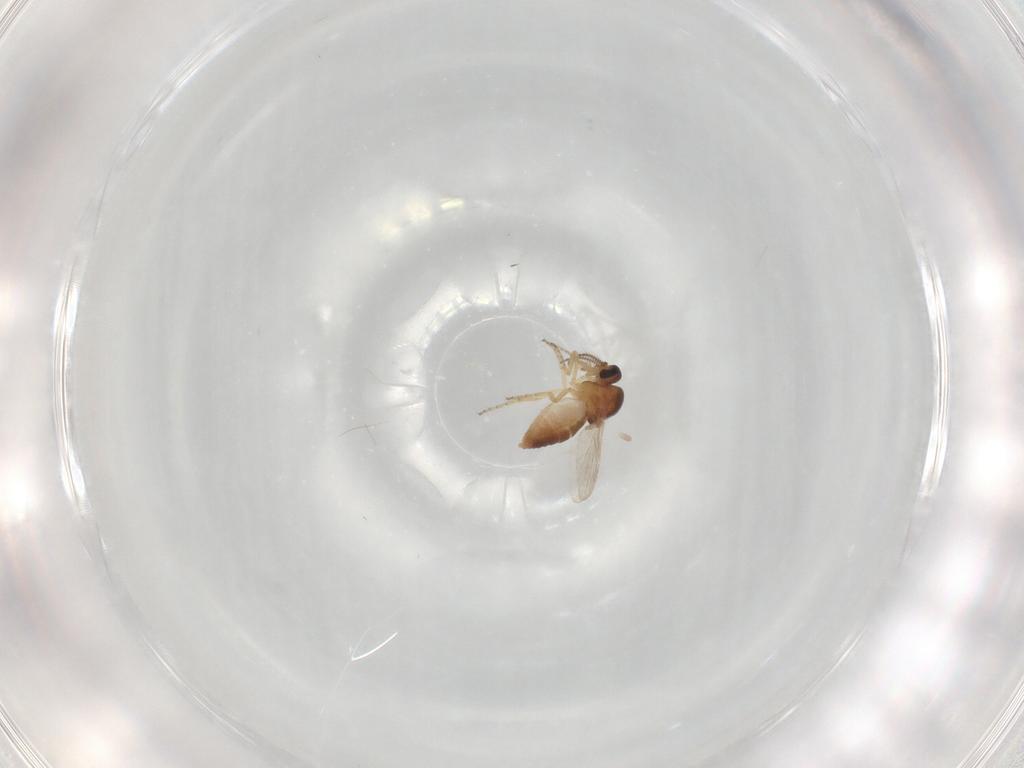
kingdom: Animalia
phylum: Arthropoda
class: Insecta
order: Diptera
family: Ceratopogonidae
